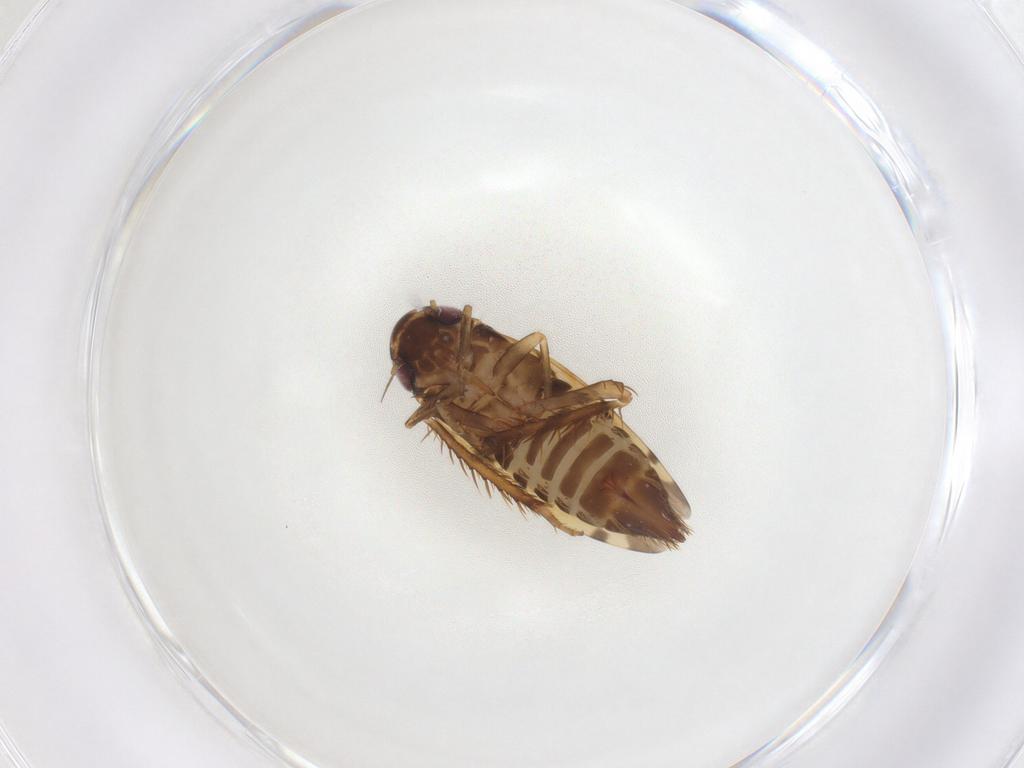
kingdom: Animalia
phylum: Arthropoda
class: Insecta
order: Hemiptera
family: Cicadellidae
